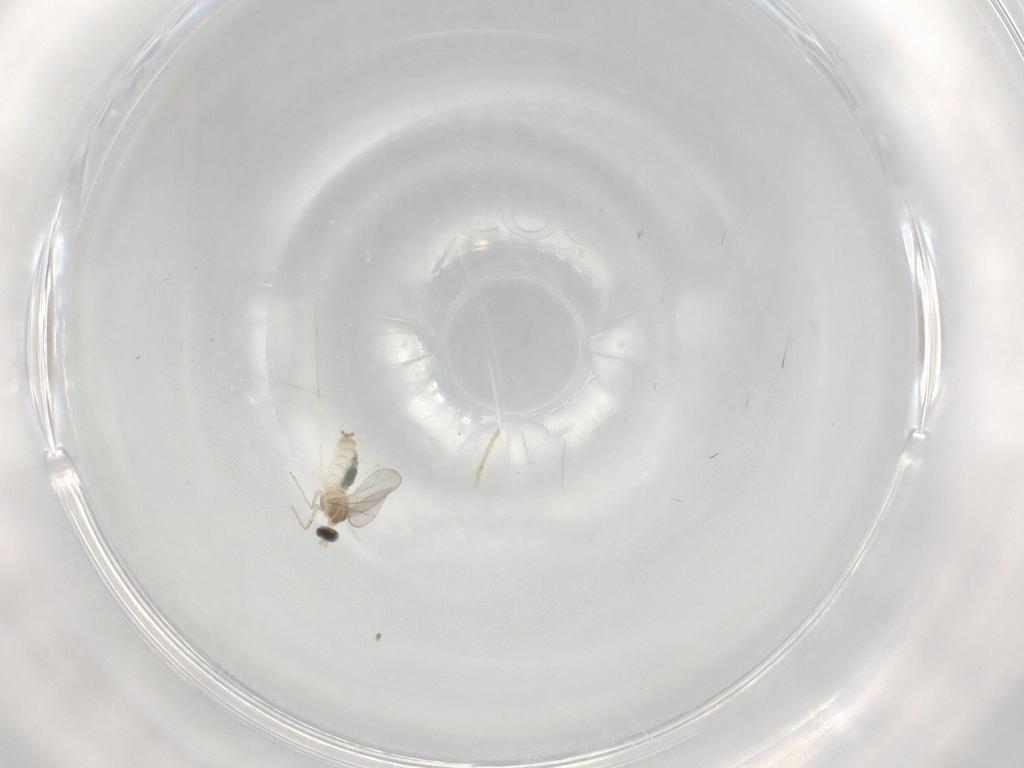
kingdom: Animalia
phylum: Arthropoda
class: Insecta
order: Diptera
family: Cecidomyiidae
